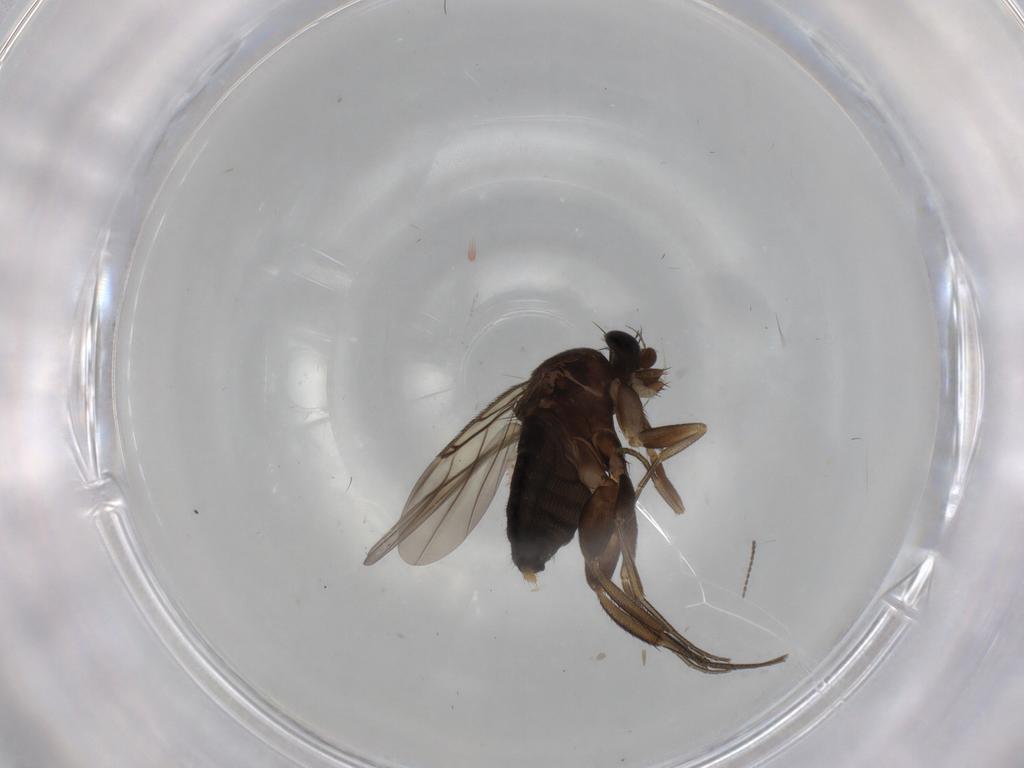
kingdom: Animalia
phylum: Arthropoda
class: Insecta
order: Diptera
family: Phoridae
